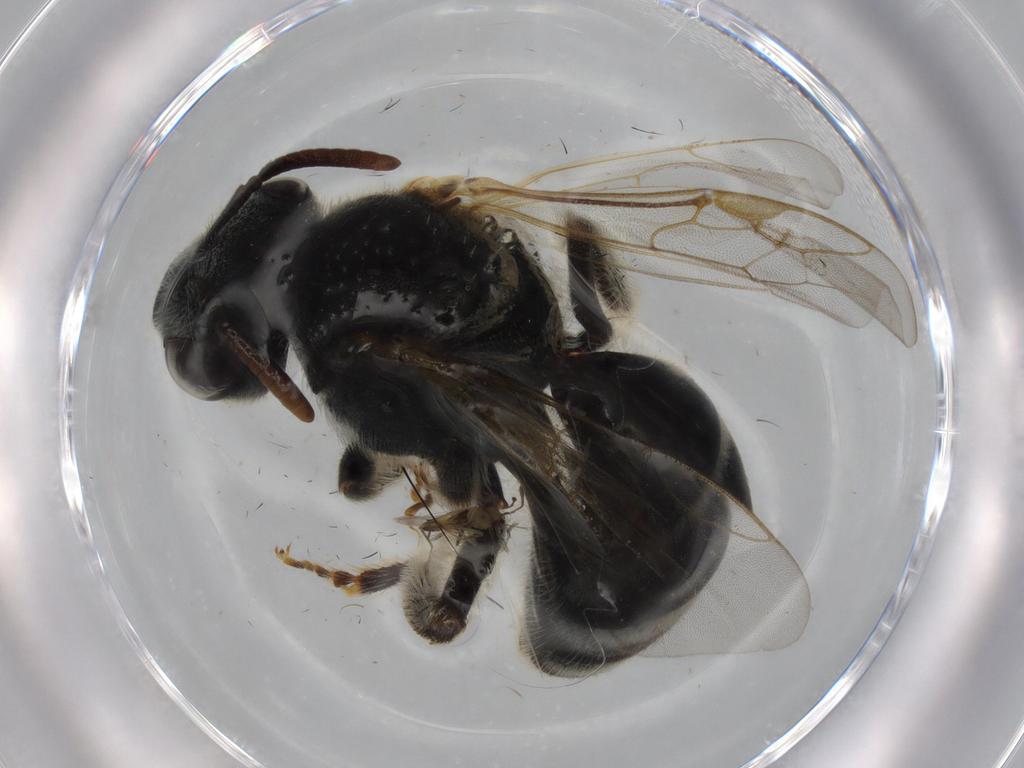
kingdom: Animalia
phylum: Arthropoda
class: Insecta
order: Hymenoptera
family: Mymaridae
